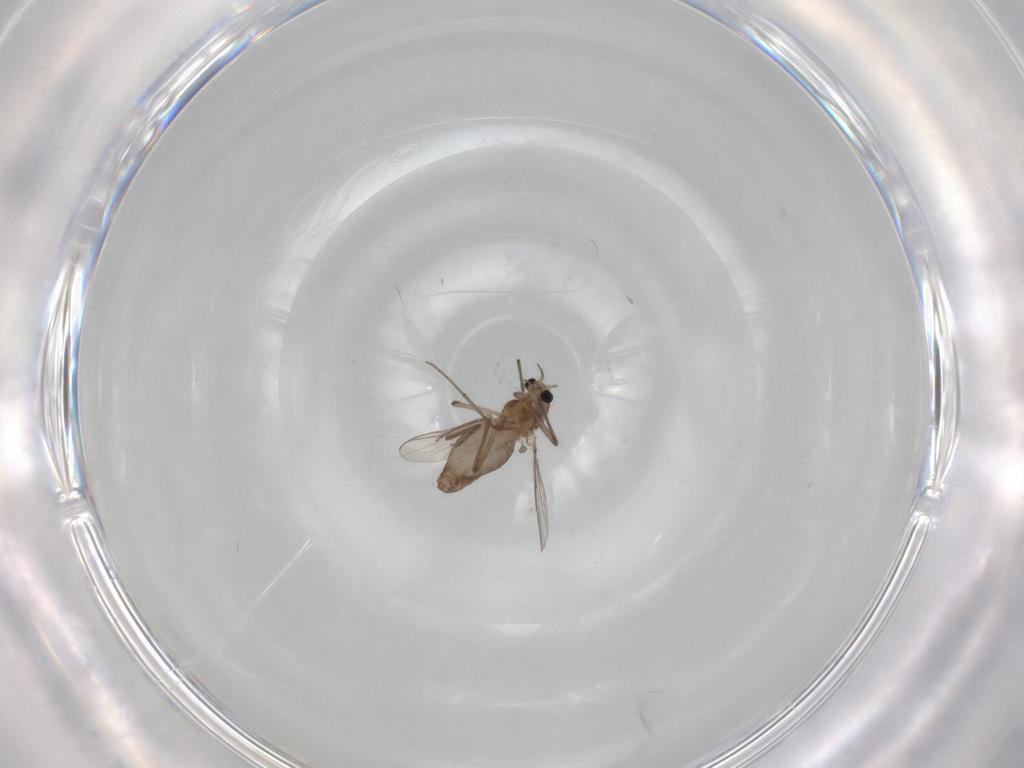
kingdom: Animalia
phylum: Arthropoda
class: Insecta
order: Diptera
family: Chironomidae
